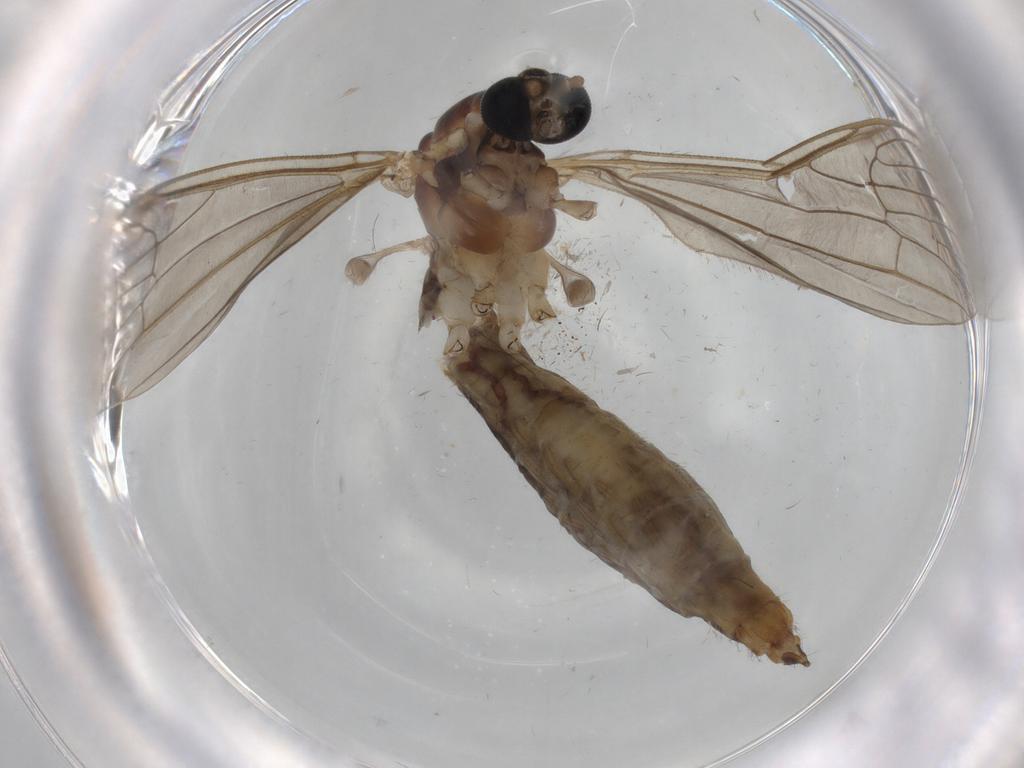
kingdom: Animalia
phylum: Arthropoda
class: Insecta
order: Diptera
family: Limoniidae
